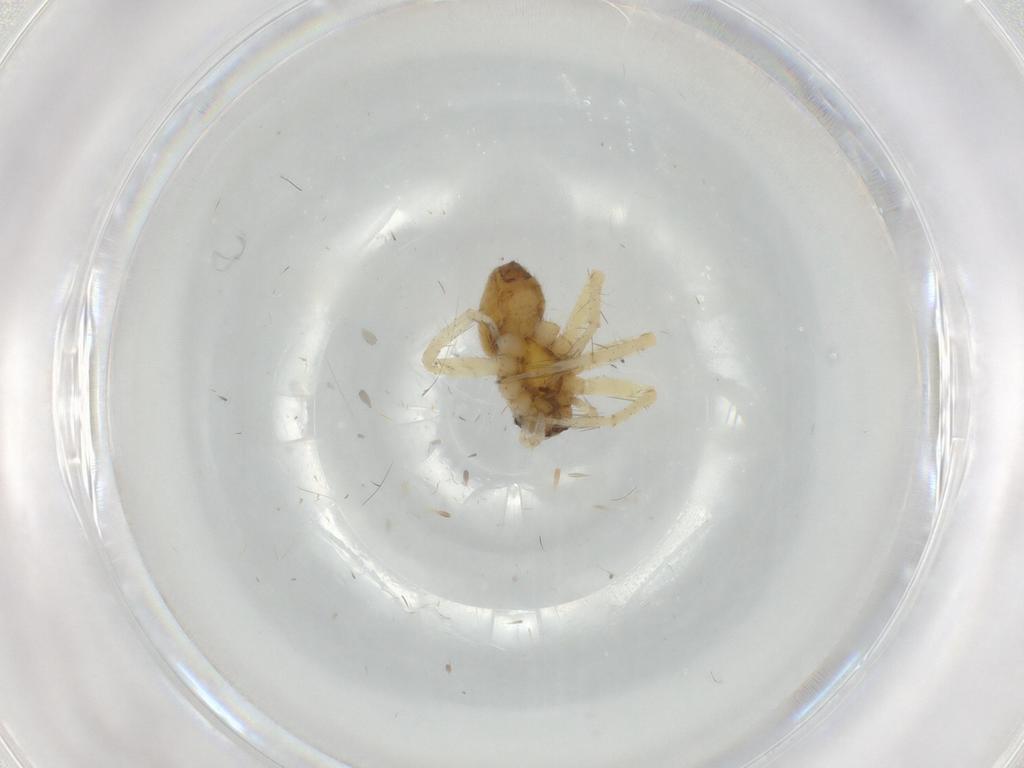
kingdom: Animalia
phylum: Arthropoda
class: Arachnida
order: Araneae
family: Pisauridae
